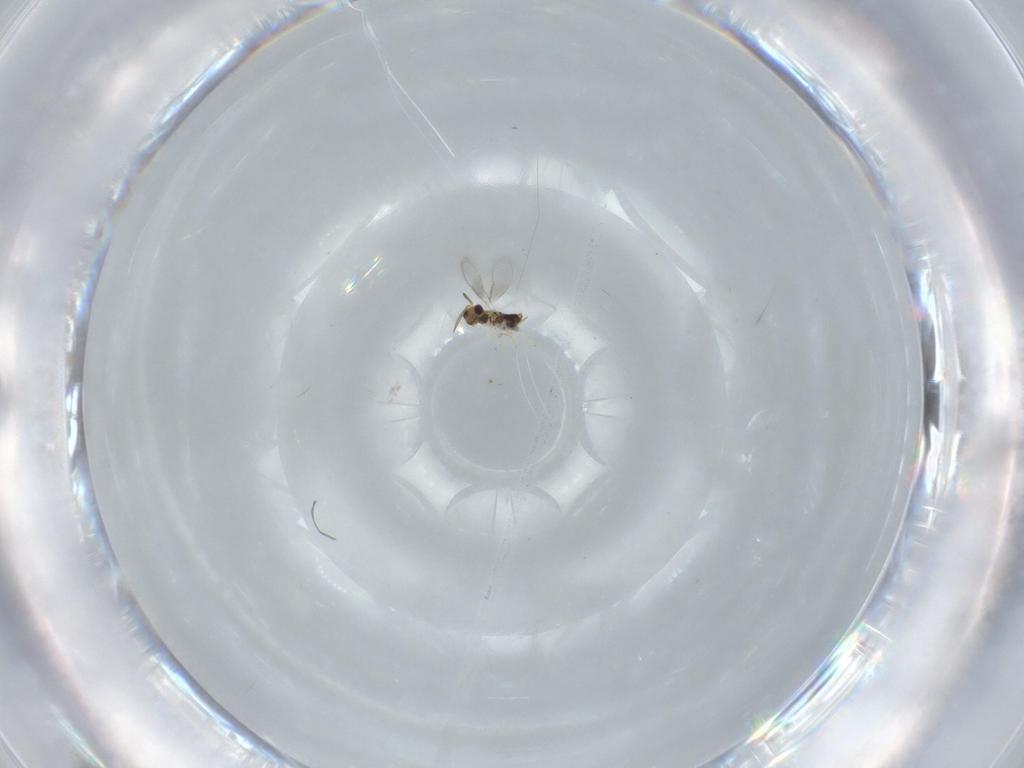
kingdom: Animalia
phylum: Arthropoda
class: Insecta
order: Hymenoptera
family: Aphelinidae
